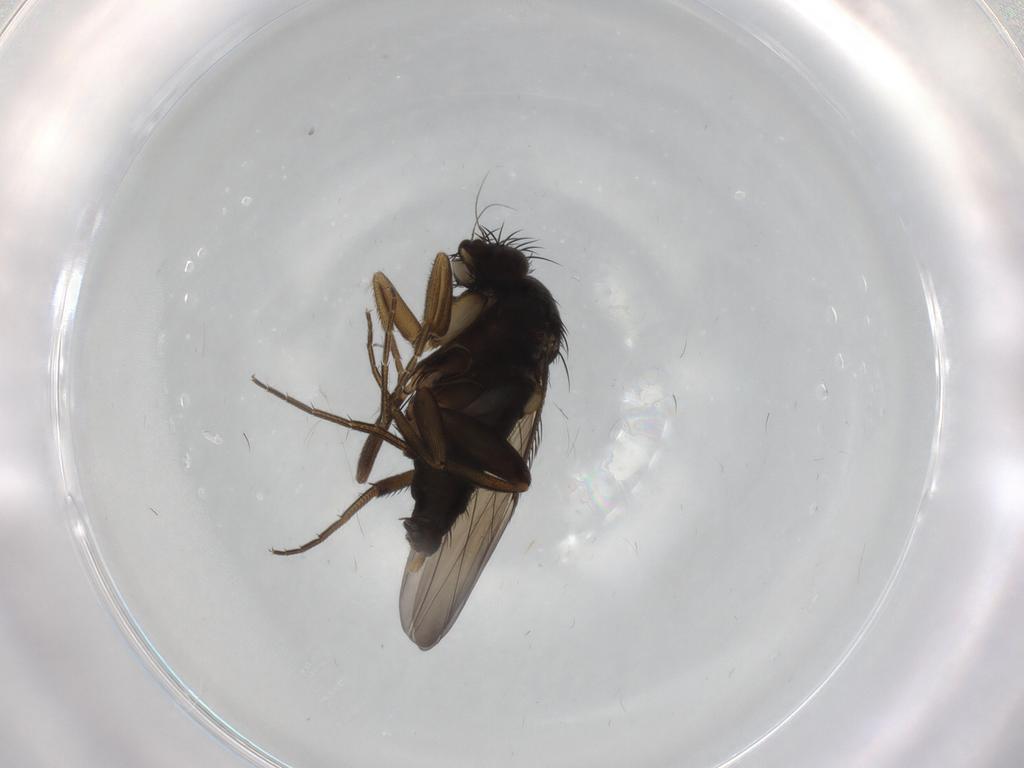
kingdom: Animalia
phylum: Arthropoda
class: Insecta
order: Diptera
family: Phoridae
